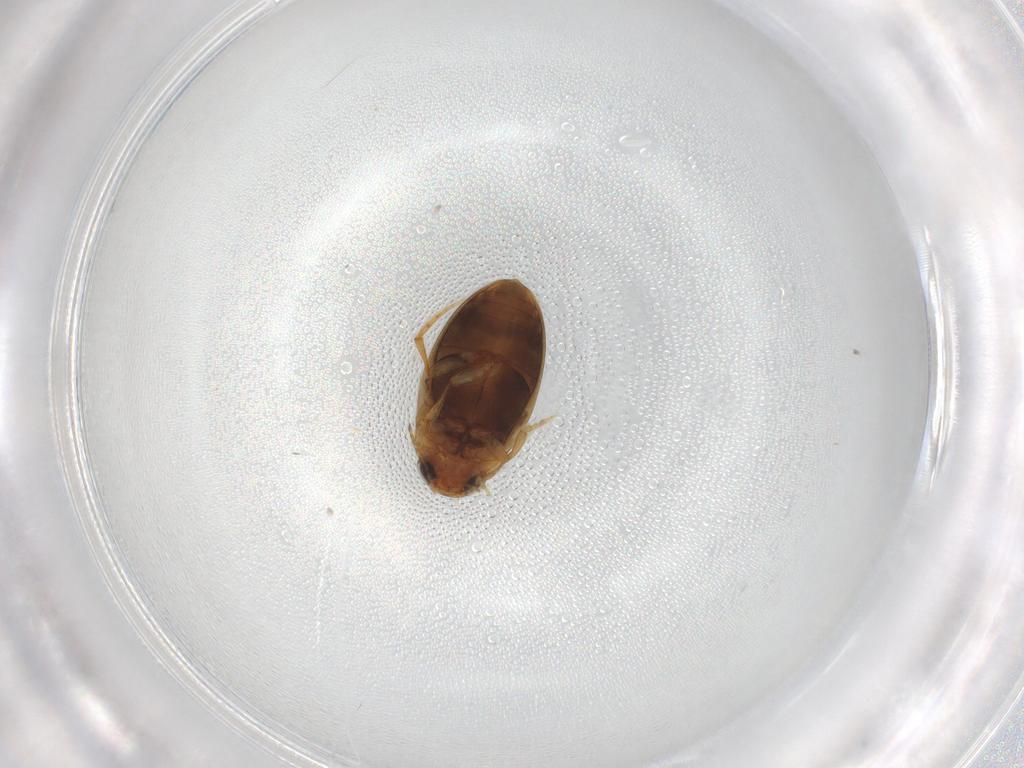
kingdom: Animalia
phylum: Arthropoda
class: Insecta
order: Coleoptera
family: Dytiscidae
